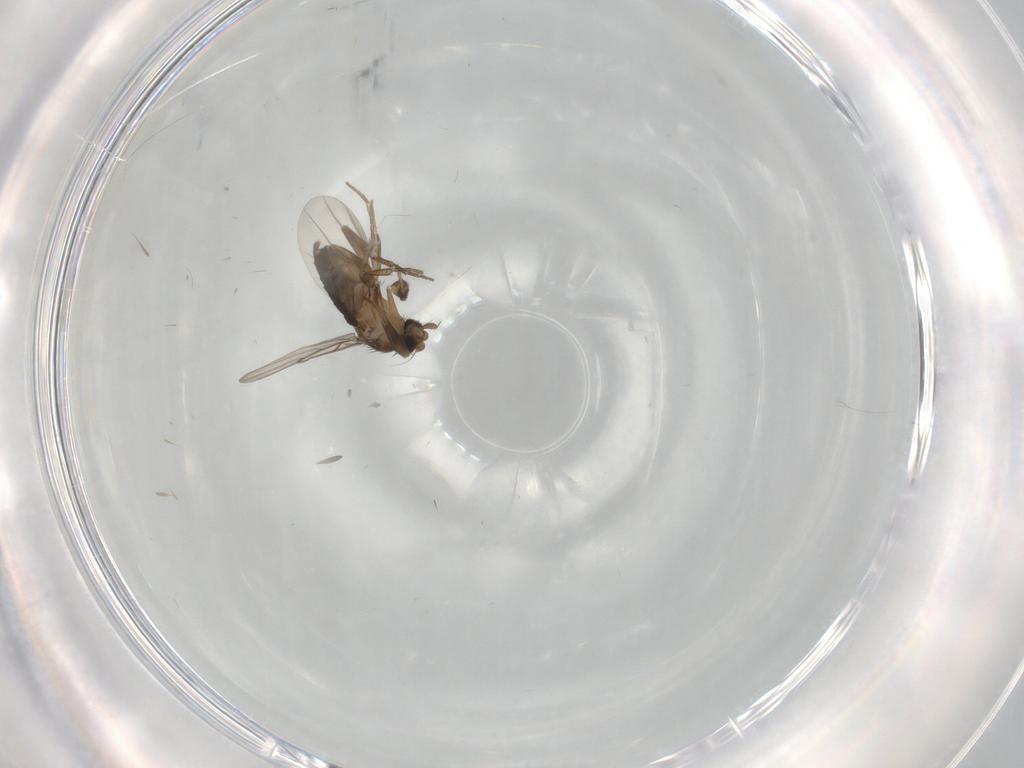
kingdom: Animalia
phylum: Arthropoda
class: Insecta
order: Diptera
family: Phoridae
